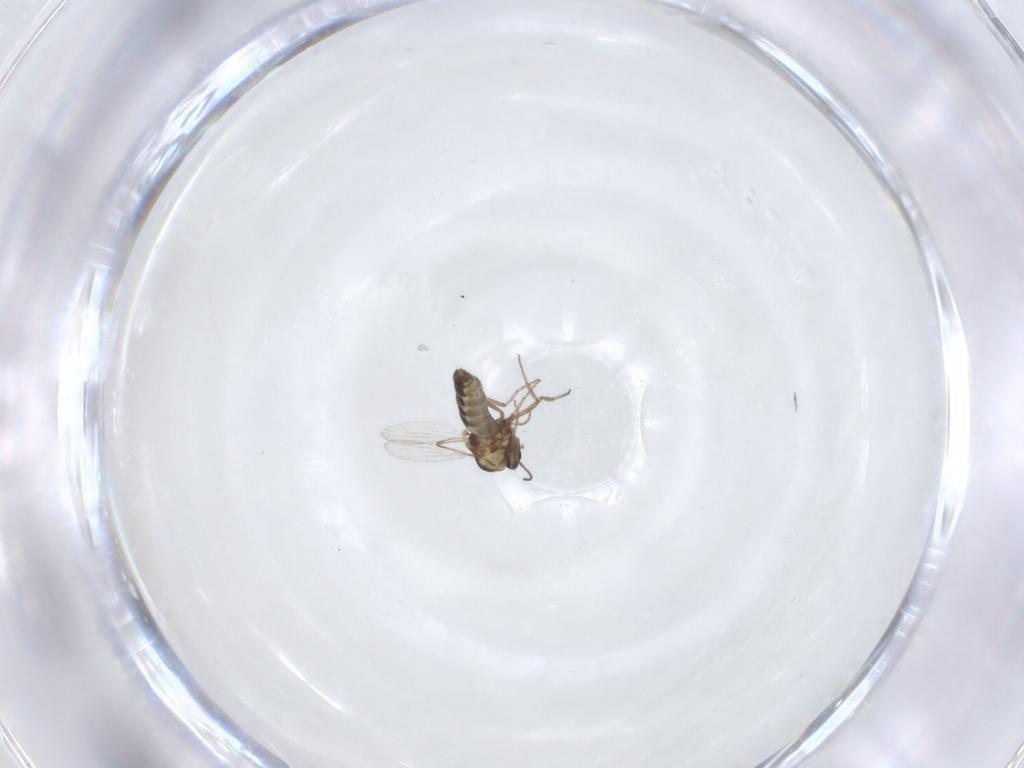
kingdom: Animalia
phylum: Arthropoda
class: Insecta
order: Diptera
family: Ceratopogonidae
